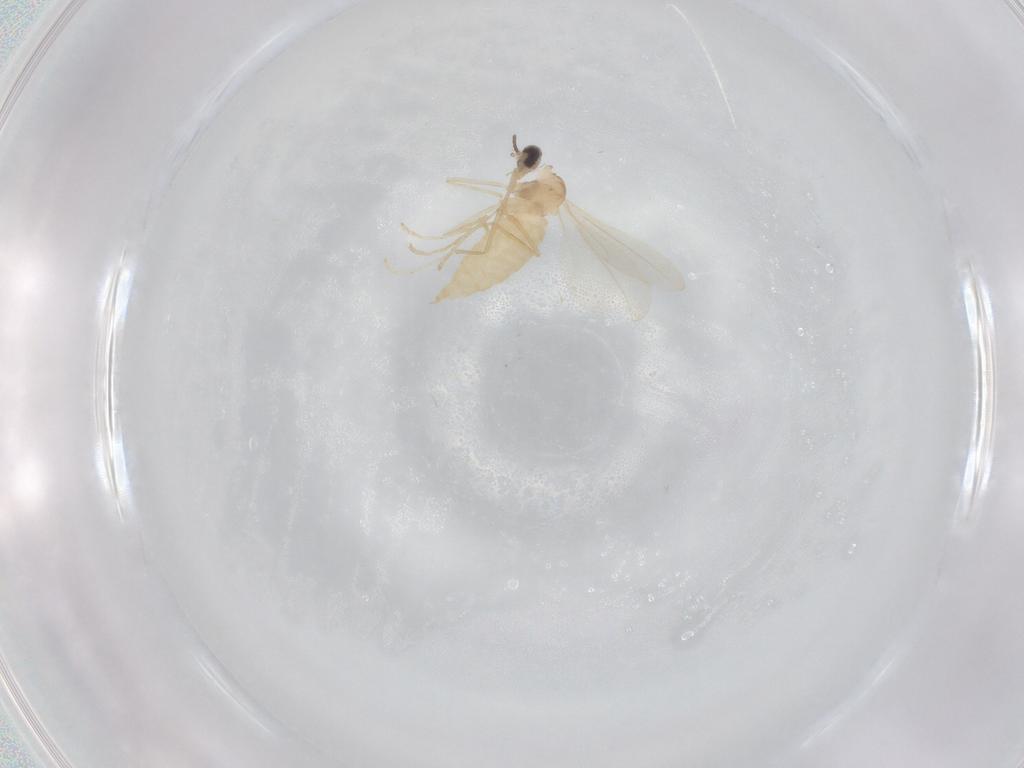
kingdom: Animalia
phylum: Arthropoda
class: Insecta
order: Diptera
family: Cecidomyiidae
